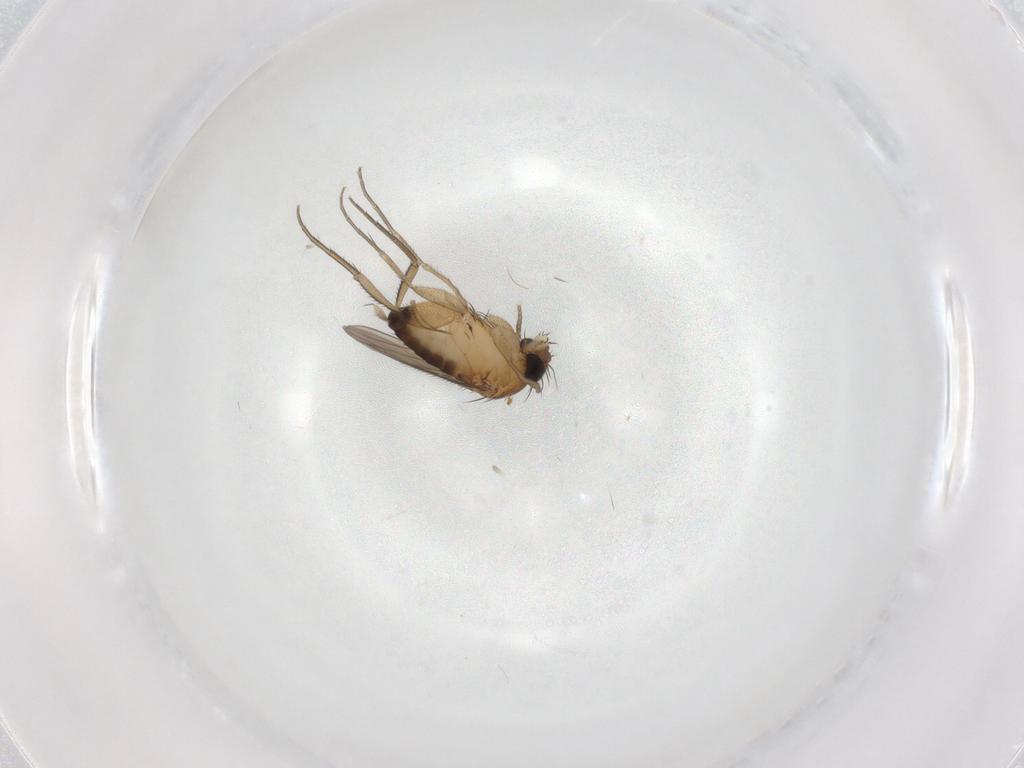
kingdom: Animalia
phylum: Arthropoda
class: Insecta
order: Diptera
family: Phoridae
